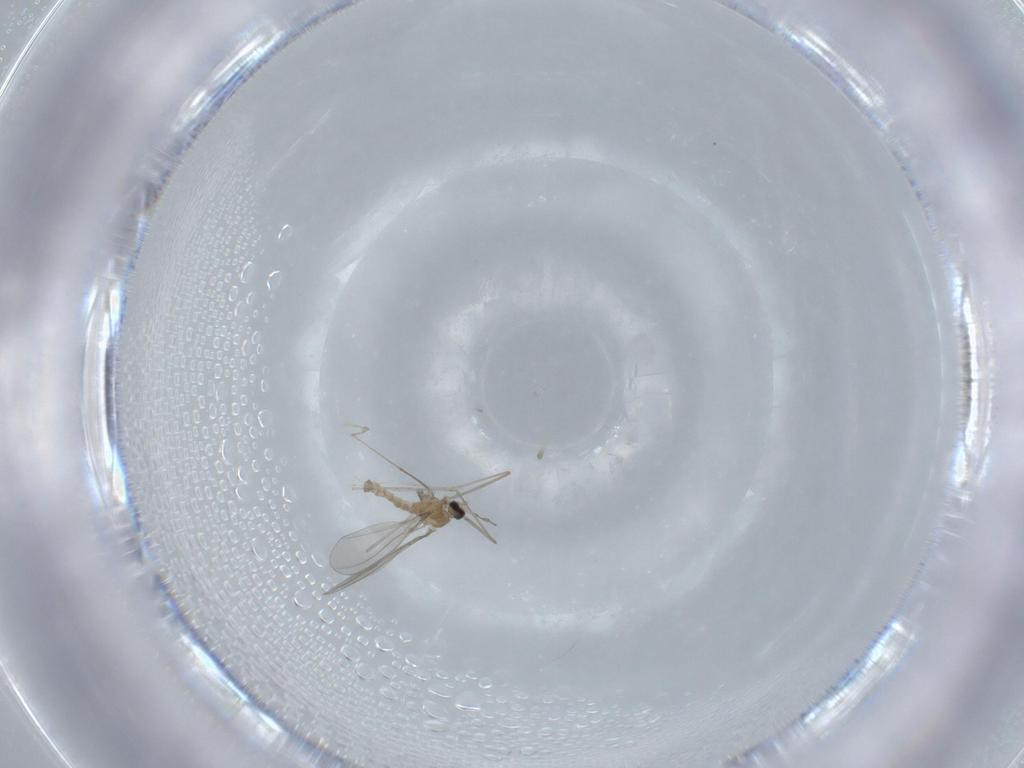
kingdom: Animalia
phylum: Arthropoda
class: Insecta
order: Diptera
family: Cecidomyiidae
